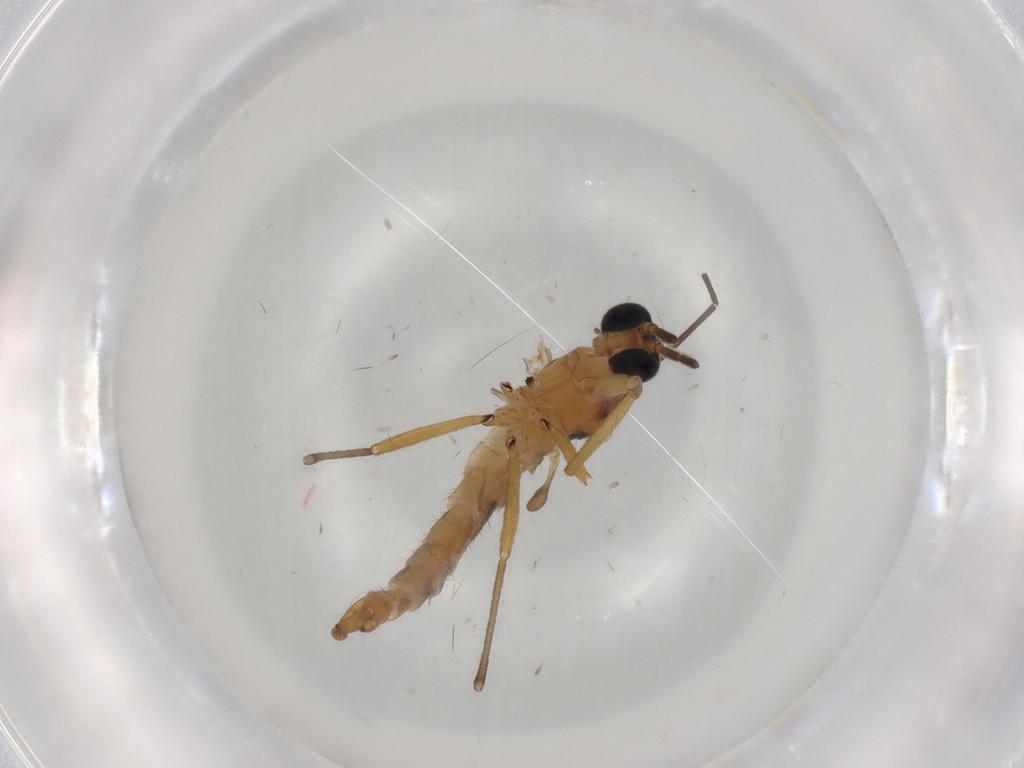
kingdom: Animalia
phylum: Arthropoda
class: Insecta
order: Diptera
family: Sciaridae
